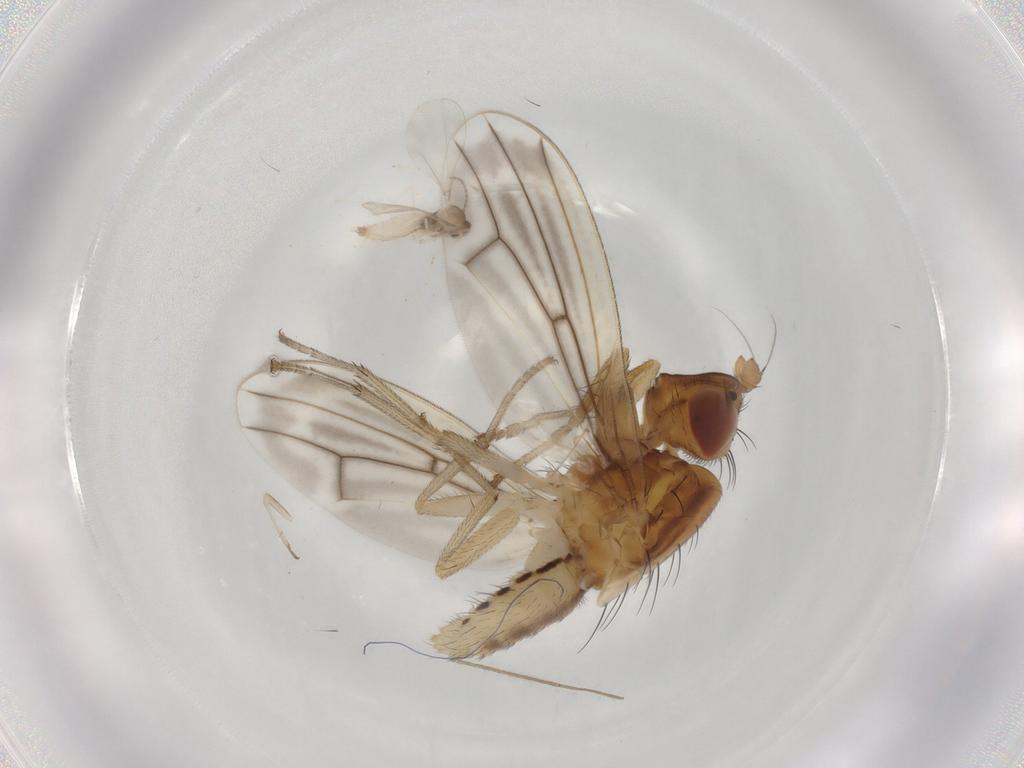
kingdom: Animalia
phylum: Arthropoda
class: Insecta
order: Diptera
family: Lauxaniidae
